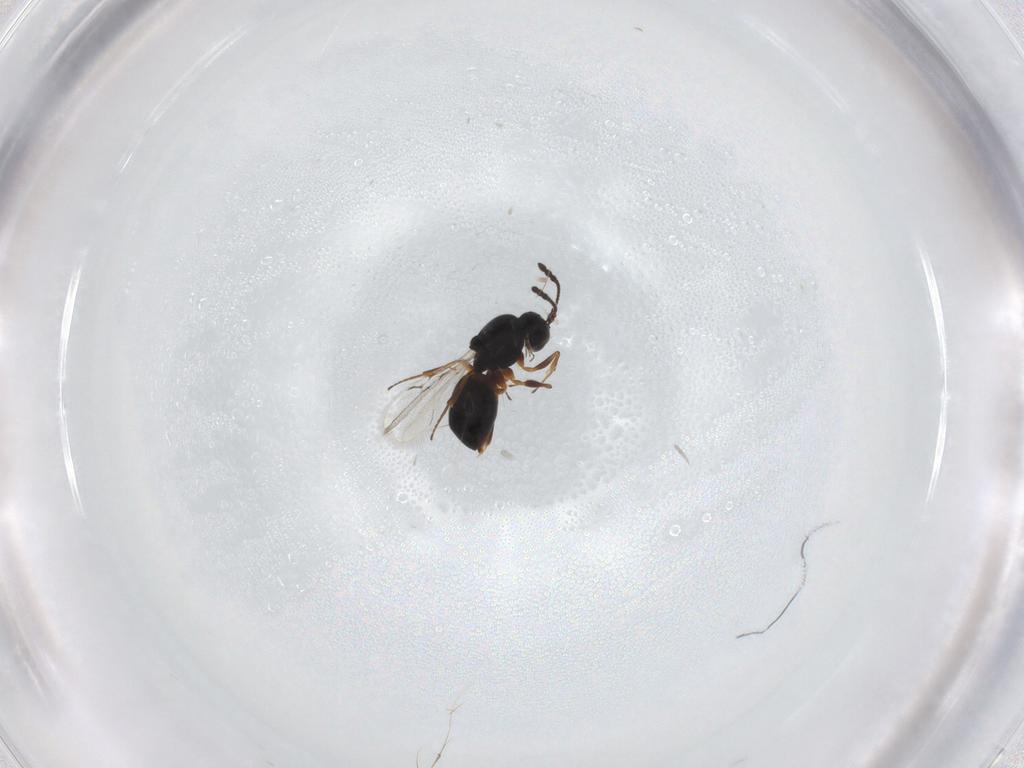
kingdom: Animalia
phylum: Arthropoda
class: Insecta
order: Hymenoptera
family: Figitidae
